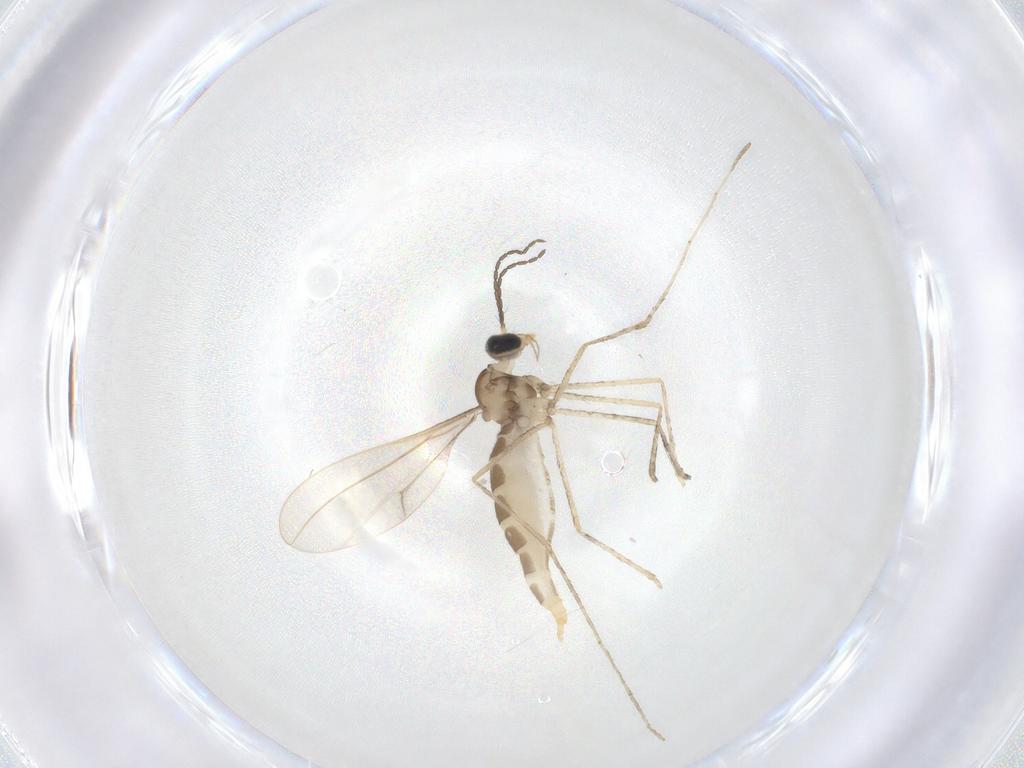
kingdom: Animalia
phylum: Arthropoda
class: Insecta
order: Diptera
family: Cecidomyiidae
